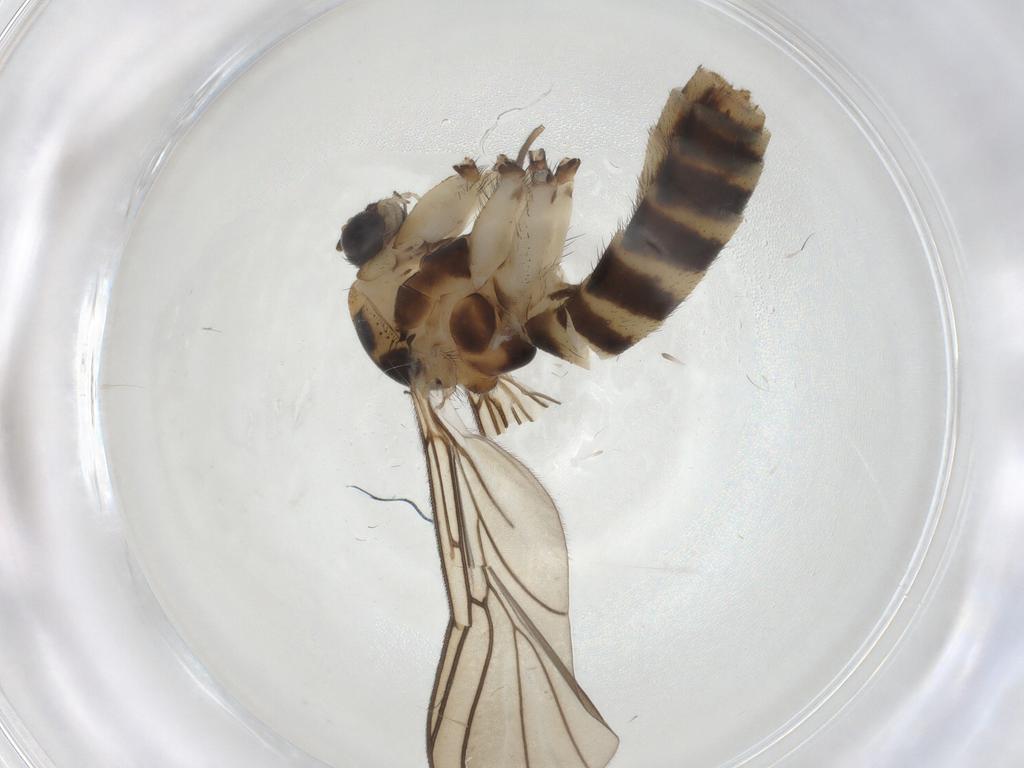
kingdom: Animalia
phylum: Arthropoda
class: Insecta
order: Diptera
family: Mycetophilidae
